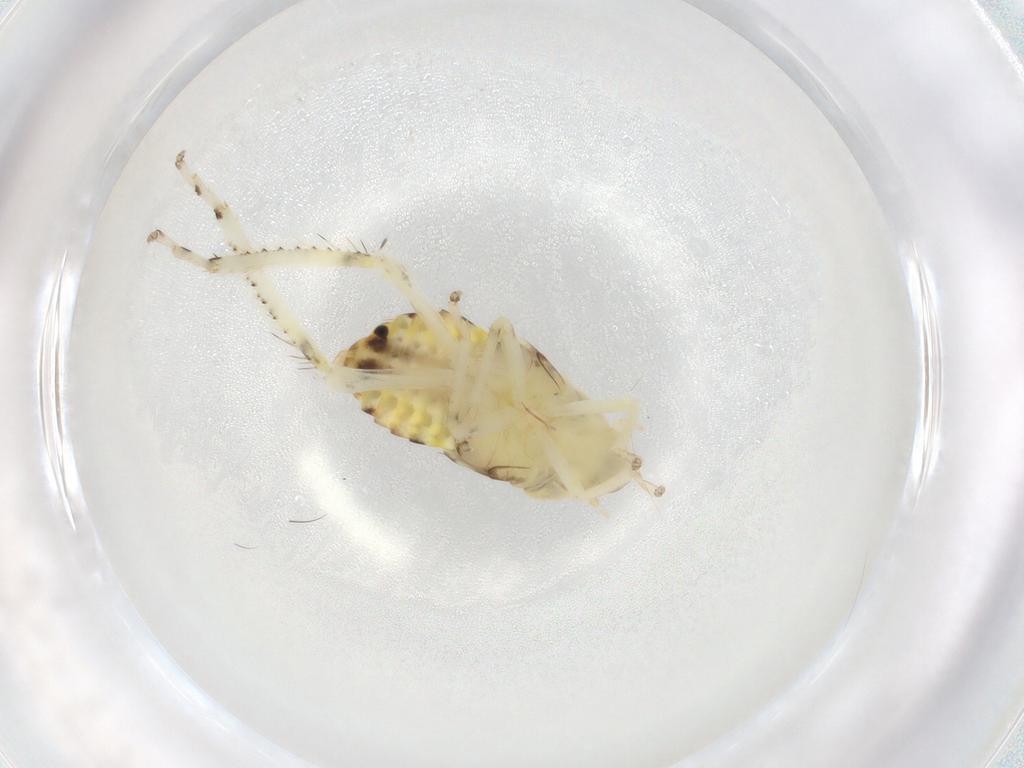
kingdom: Animalia
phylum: Arthropoda
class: Insecta
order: Hemiptera
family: Cicadellidae
